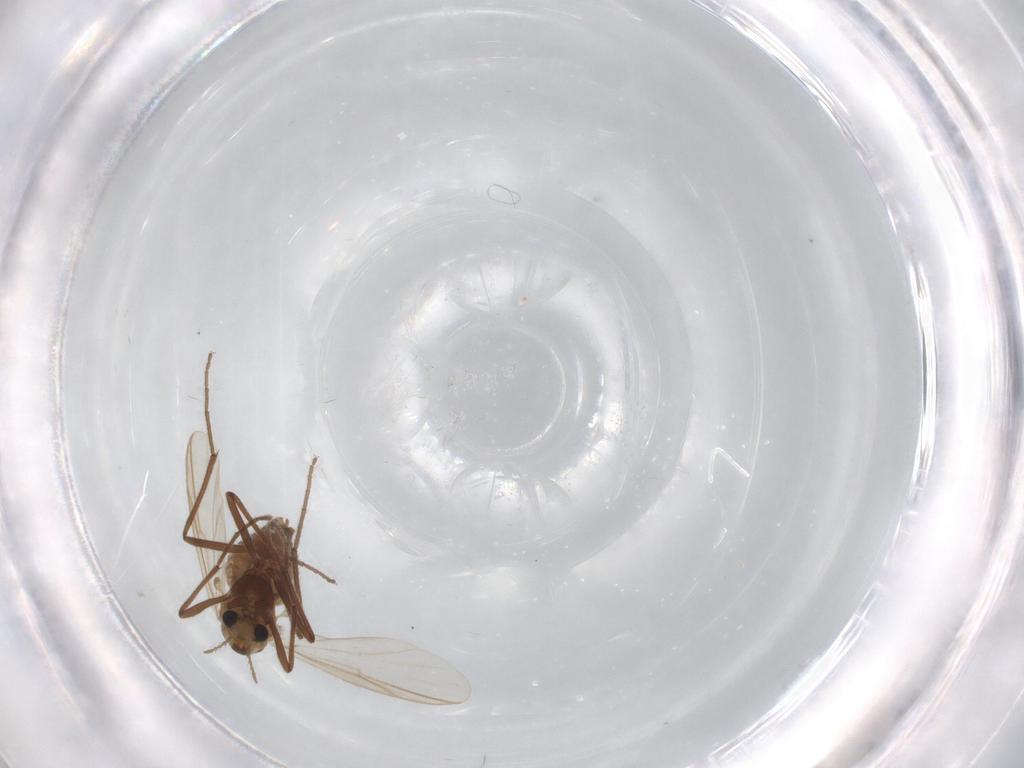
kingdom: Animalia
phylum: Arthropoda
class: Insecta
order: Diptera
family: Chironomidae
